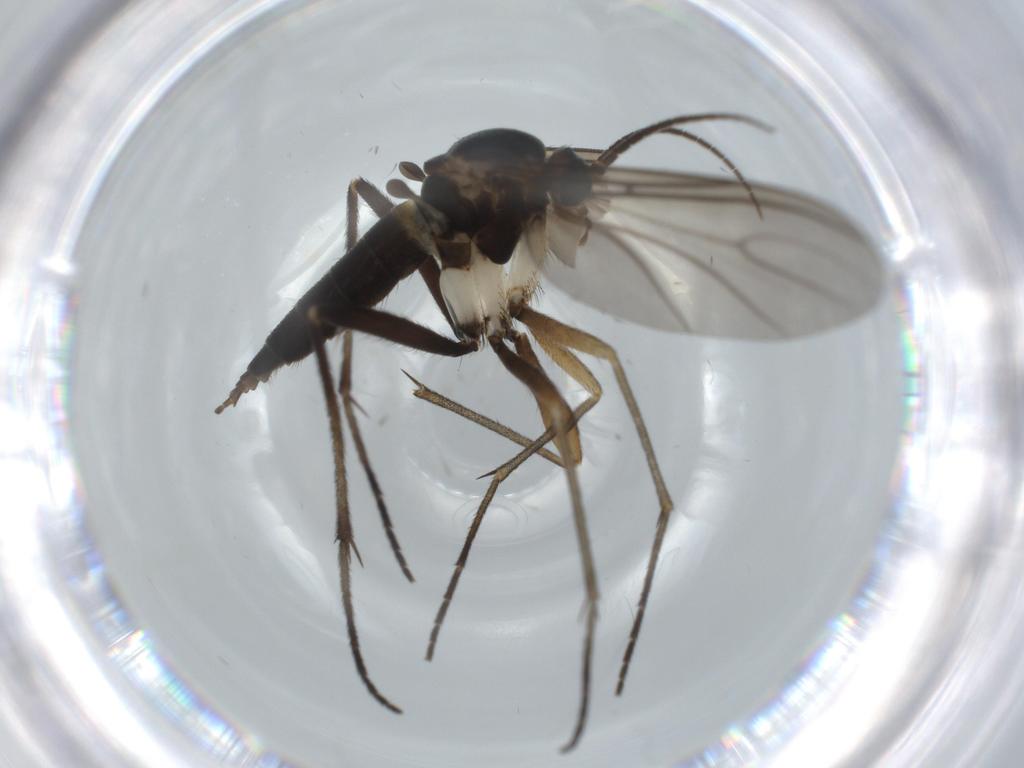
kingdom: Animalia
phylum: Arthropoda
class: Insecta
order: Diptera
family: Sciaridae
